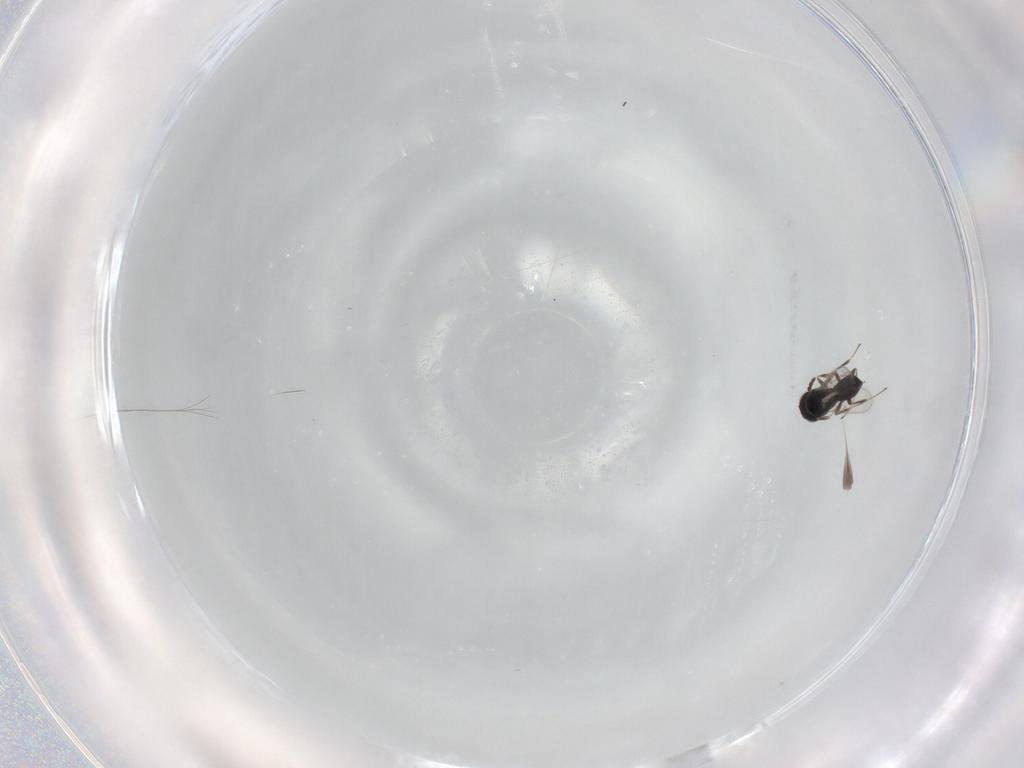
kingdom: Animalia
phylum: Arthropoda
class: Insecta
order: Hymenoptera
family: Scelionidae
